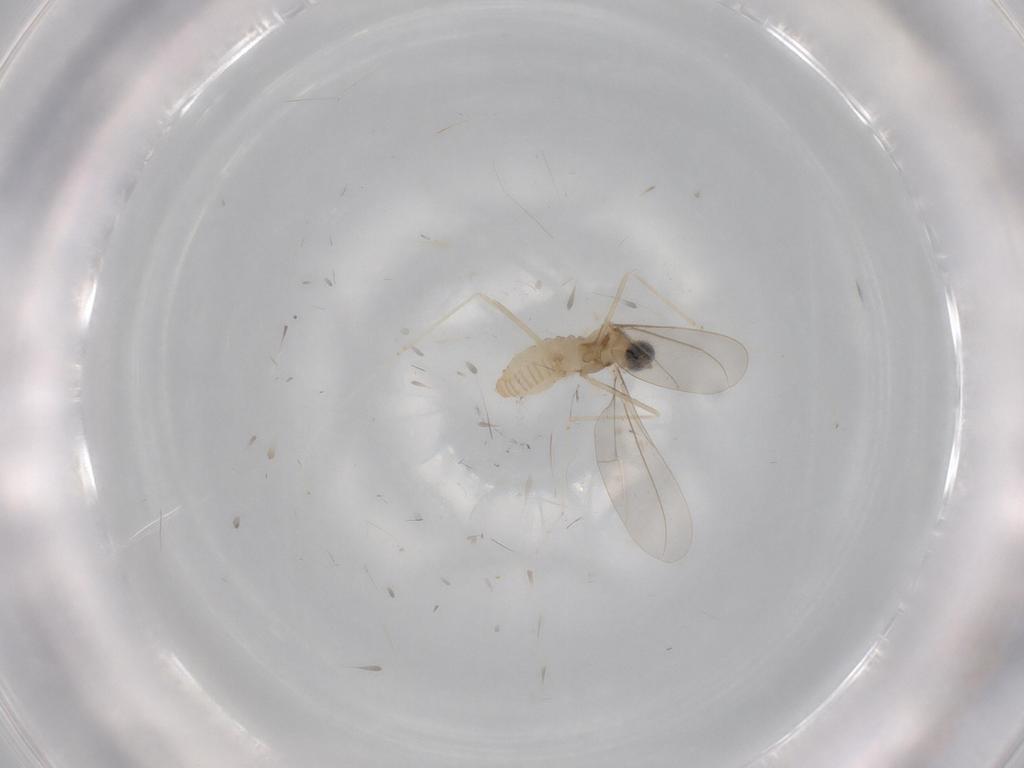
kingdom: Animalia
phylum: Arthropoda
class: Insecta
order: Diptera
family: Cecidomyiidae
